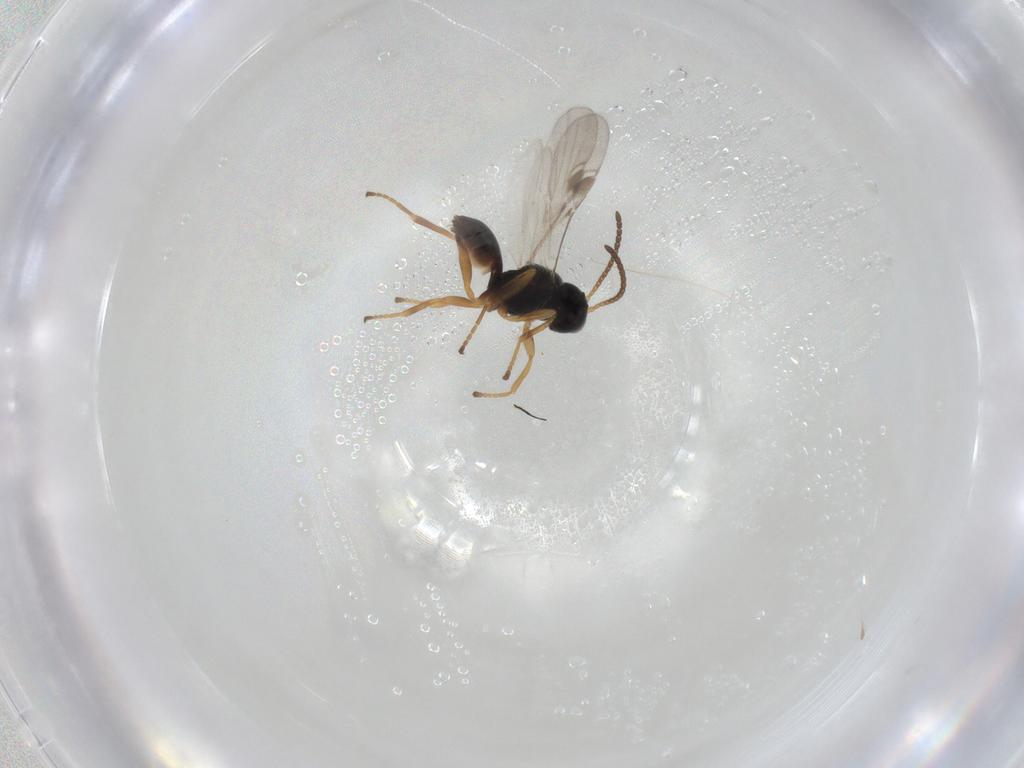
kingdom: Animalia
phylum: Arthropoda
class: Insecta
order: Hymenoptera
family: Braconidae
